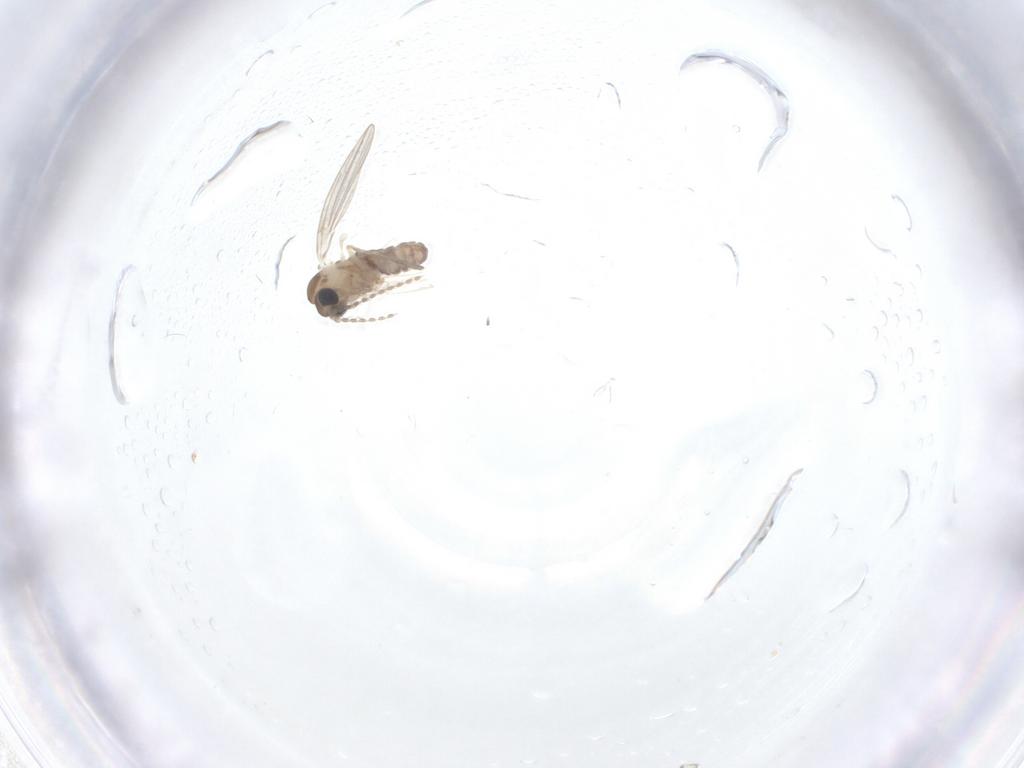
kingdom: Animalia
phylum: Arthropoda
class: Insecta
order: Diptera
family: Psychodidae
